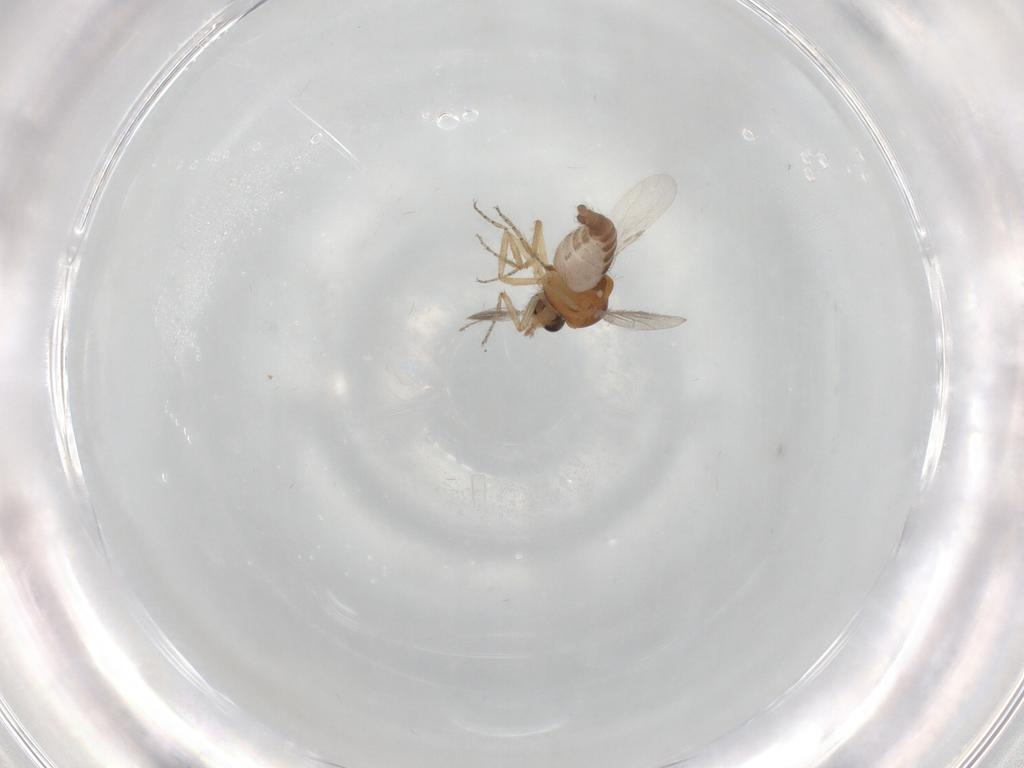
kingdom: Animalia
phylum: Arthropoda
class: Insecta
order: Diptera
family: Ceratopogonidae
